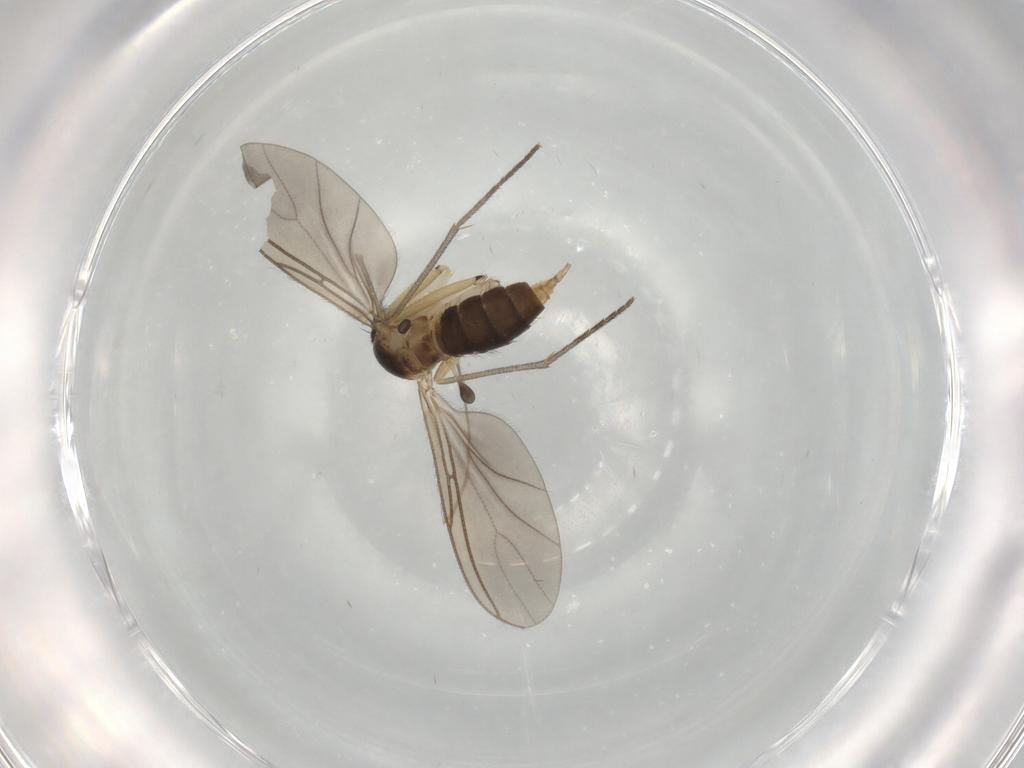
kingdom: Animalia
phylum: Arthropoda
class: Insecta
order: Diptera
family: Sciaridae
